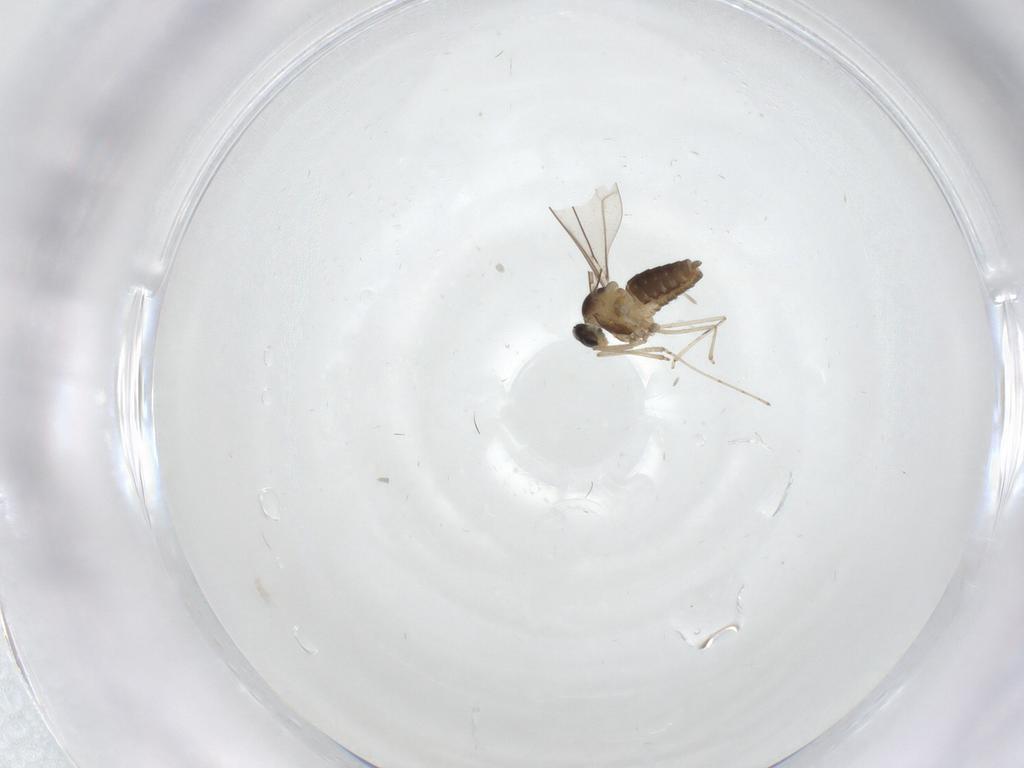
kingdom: Animalia
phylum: Arthropoda
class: Insecta
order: Diptera
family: Cecidomyiidae
